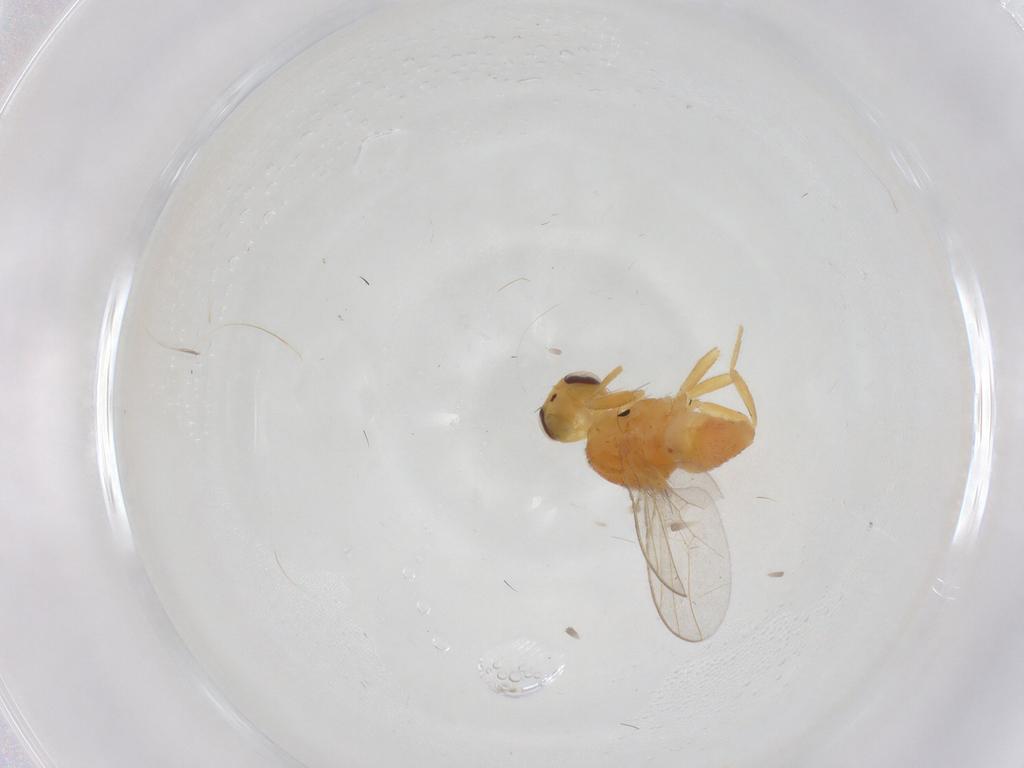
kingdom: Animalia
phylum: Arthropoda
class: Insecta
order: Diptera
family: Chloropidae
